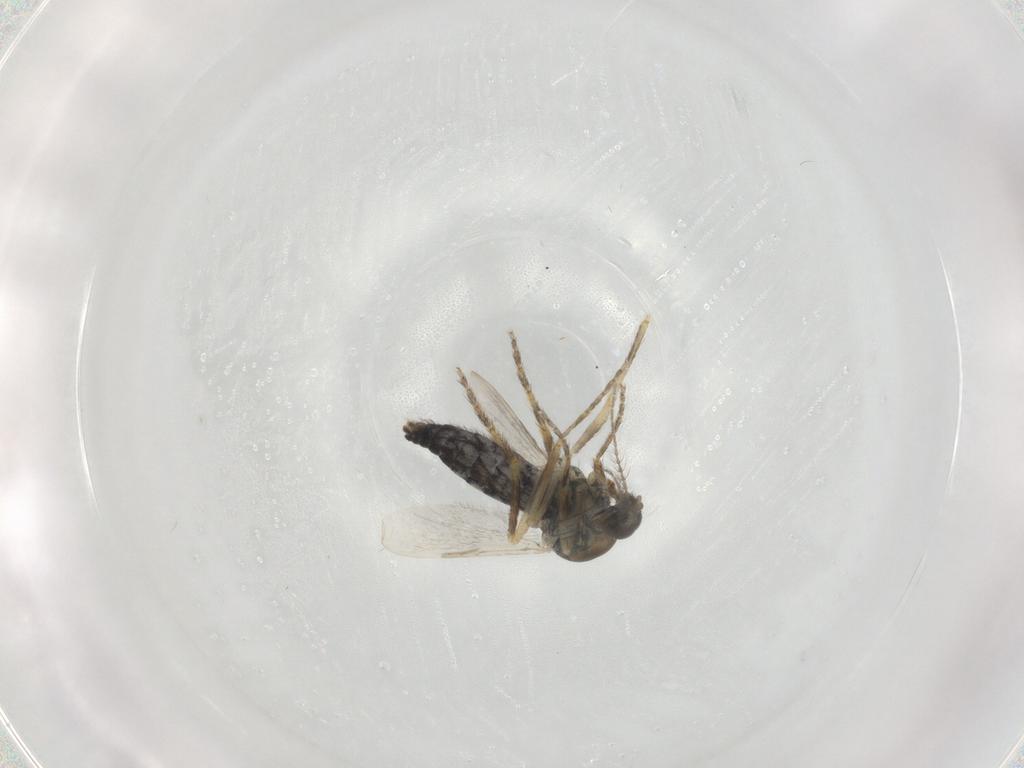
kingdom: Animalia
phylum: Arthropoda
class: Insecta
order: Diptera
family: Ceratopogonidae
